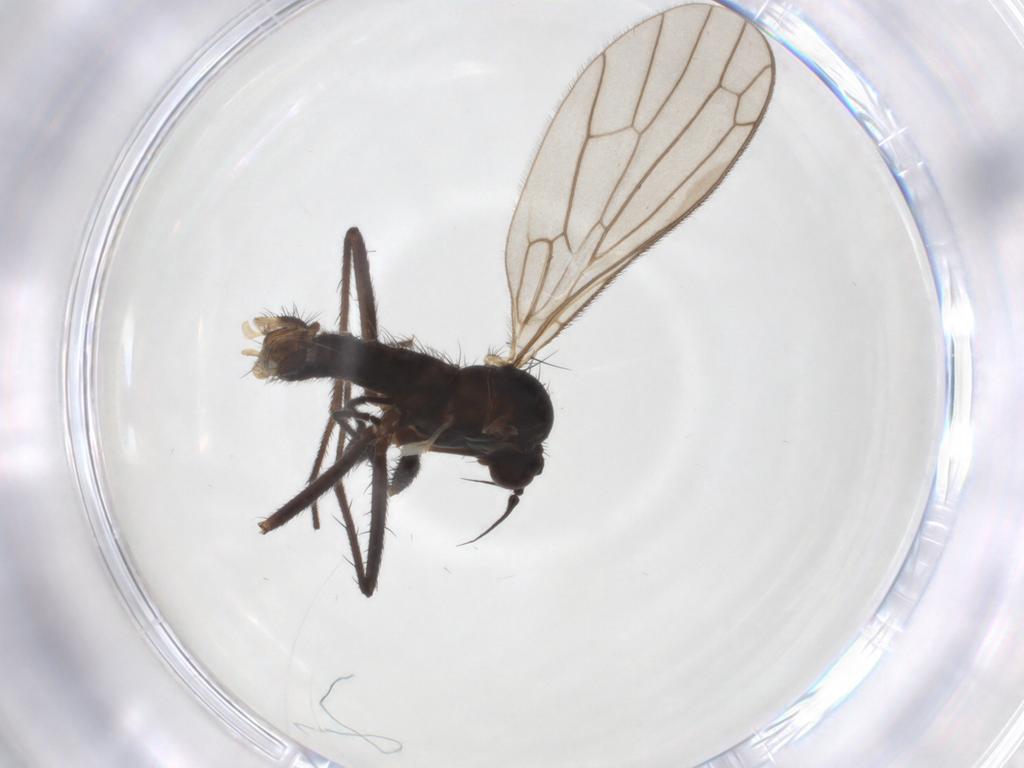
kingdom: Animalia
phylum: Arthropoda
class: Insecta
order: Diptera
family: Empididae
